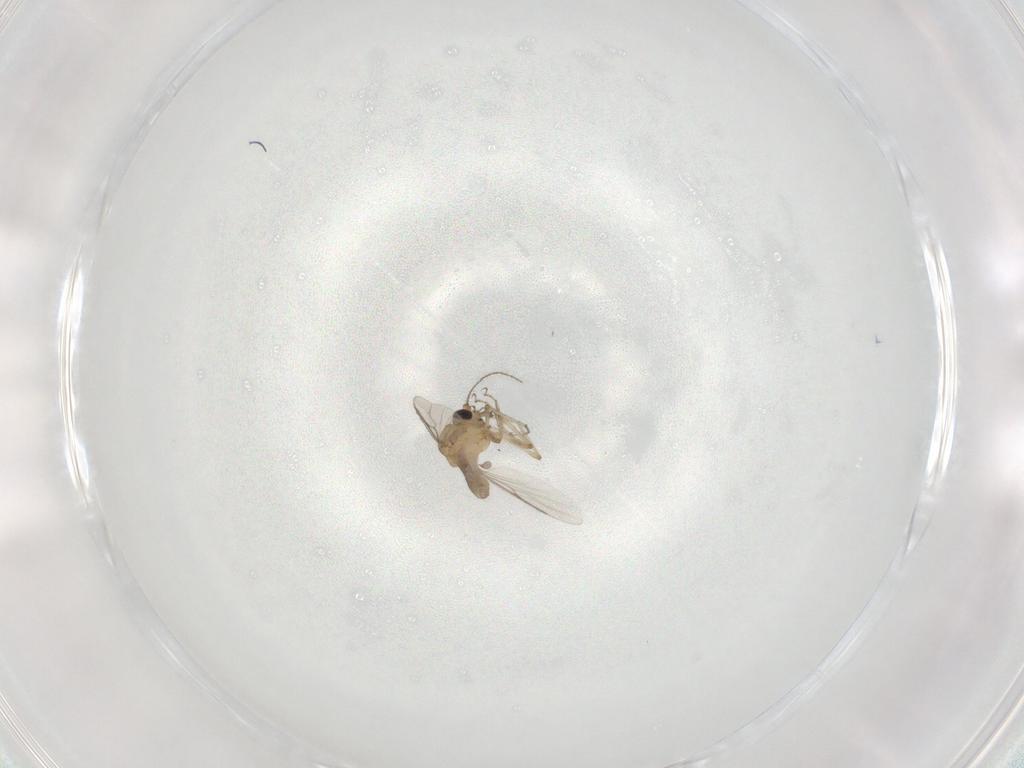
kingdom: Animalia
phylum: Arthropoda
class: Insecta
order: Diptera
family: Ceratopogonidae
